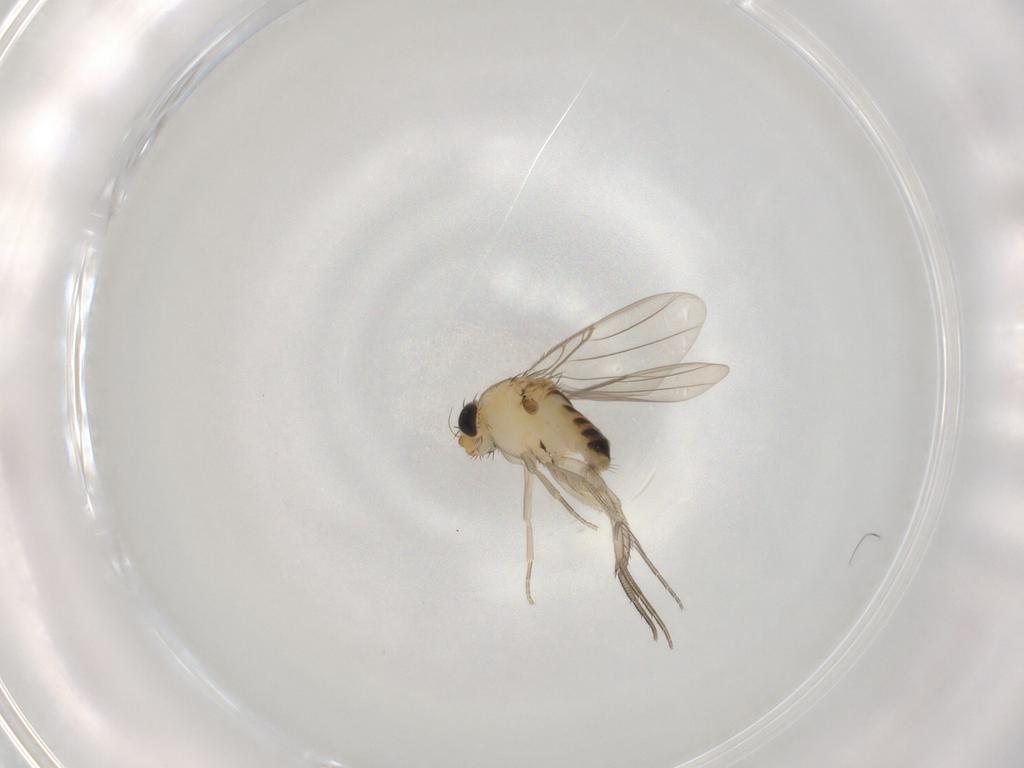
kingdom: Animalia
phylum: Arthropoda
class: Insecta
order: Diptera
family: Phoridae
